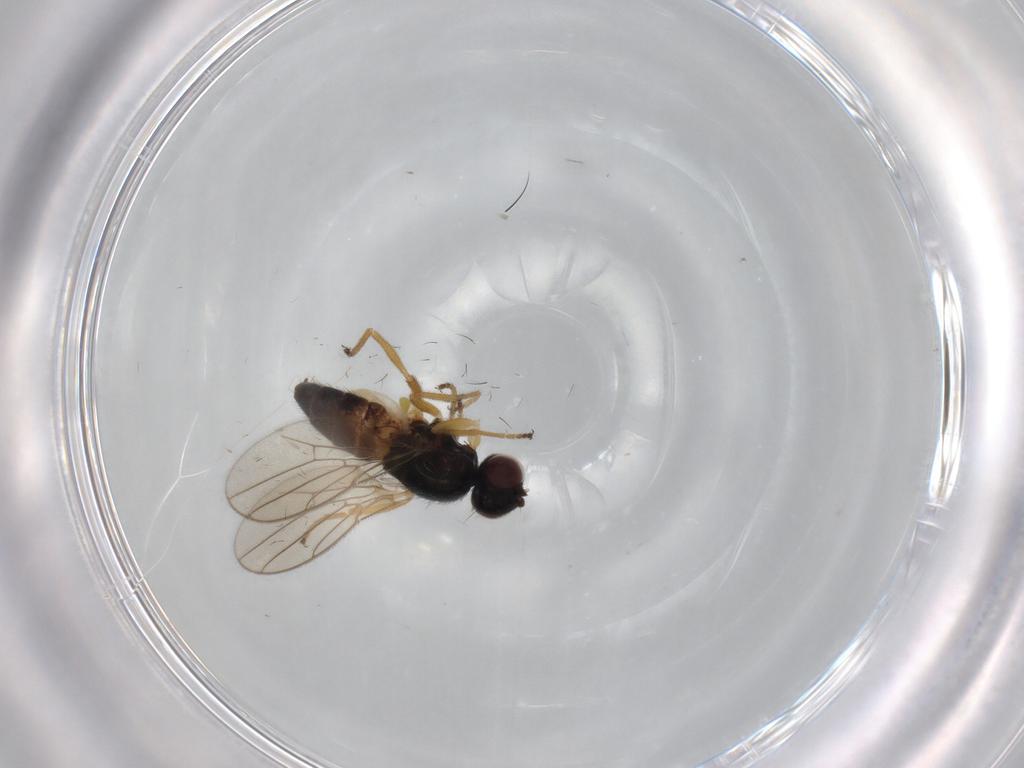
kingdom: Animalia
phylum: Arthropoda
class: Insecta
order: Diptera
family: Chloropidae
